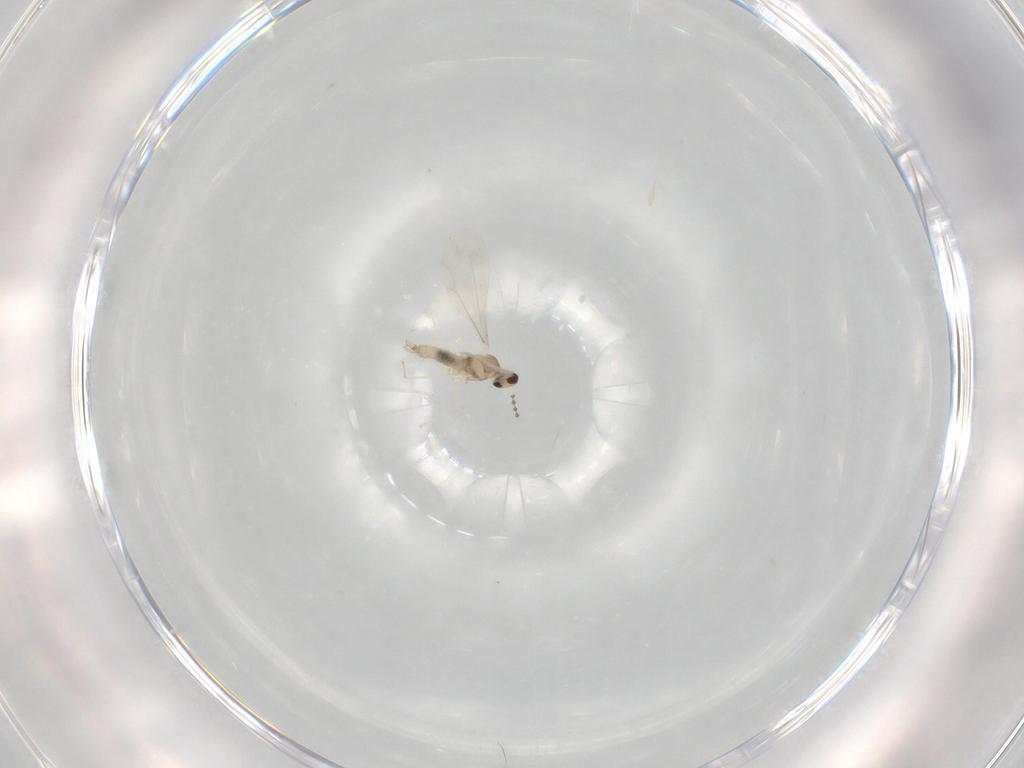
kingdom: Animalia
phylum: Arthropoda
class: Insecta
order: Diptera
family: Cecidomyiidae
